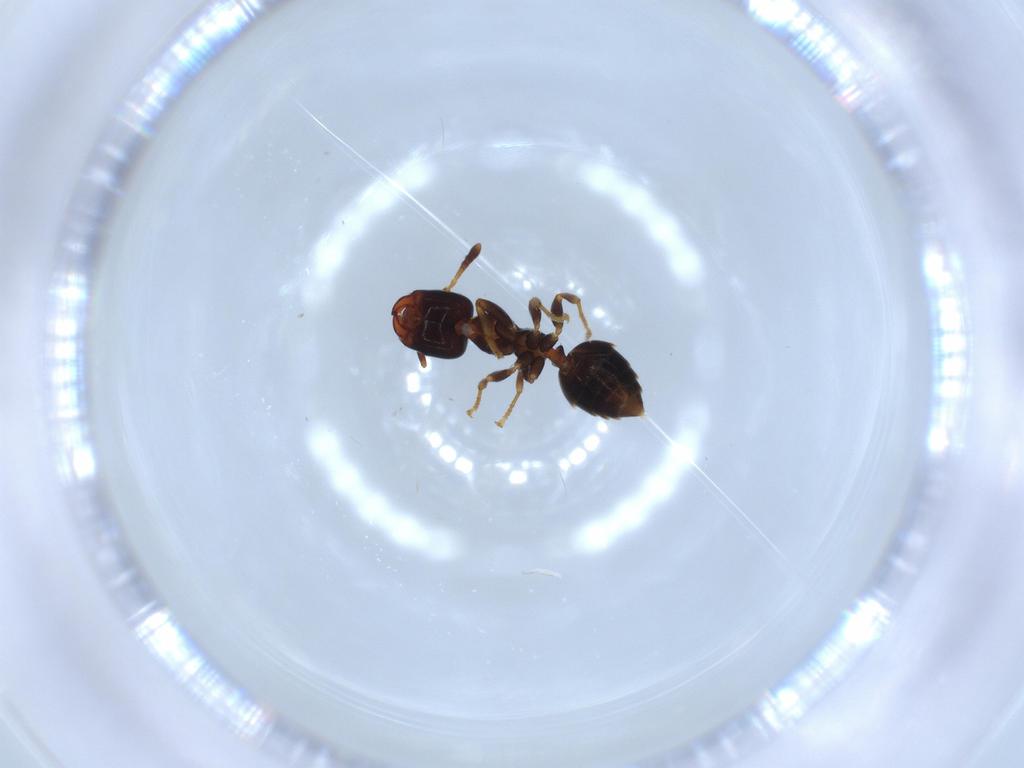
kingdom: Animalia
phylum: Arthropoda
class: Insecta
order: Hymenoptera
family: Formicidae
